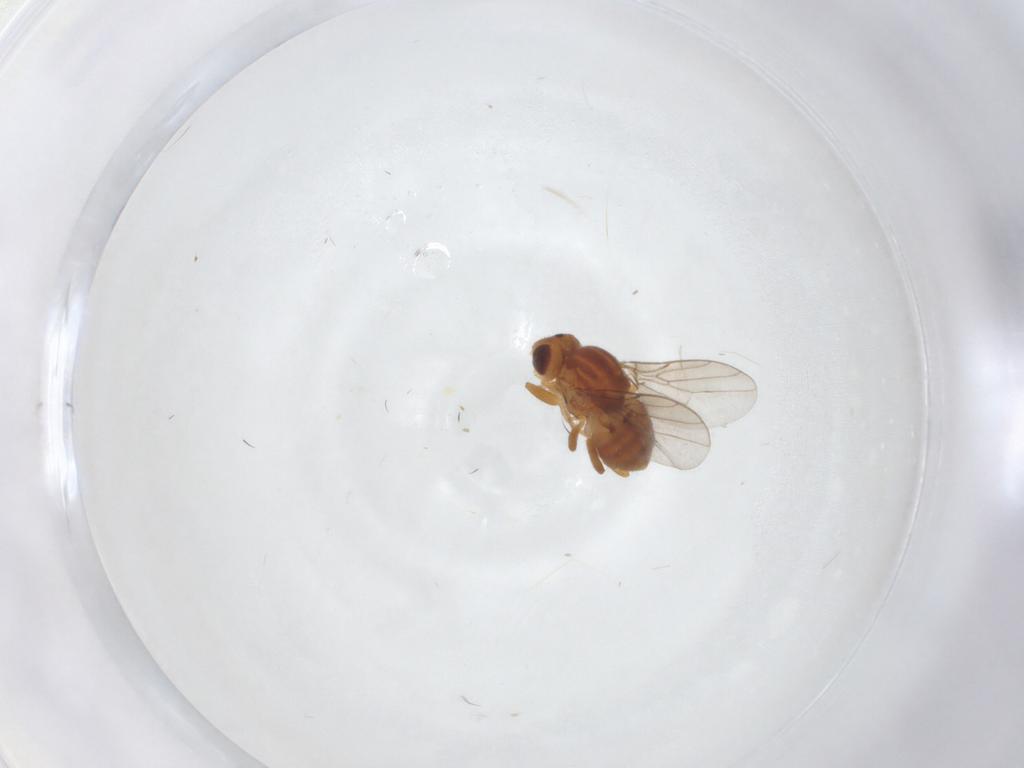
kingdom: Animalia
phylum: Arthropoda
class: Insecta
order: Diptera
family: Chloropidae
